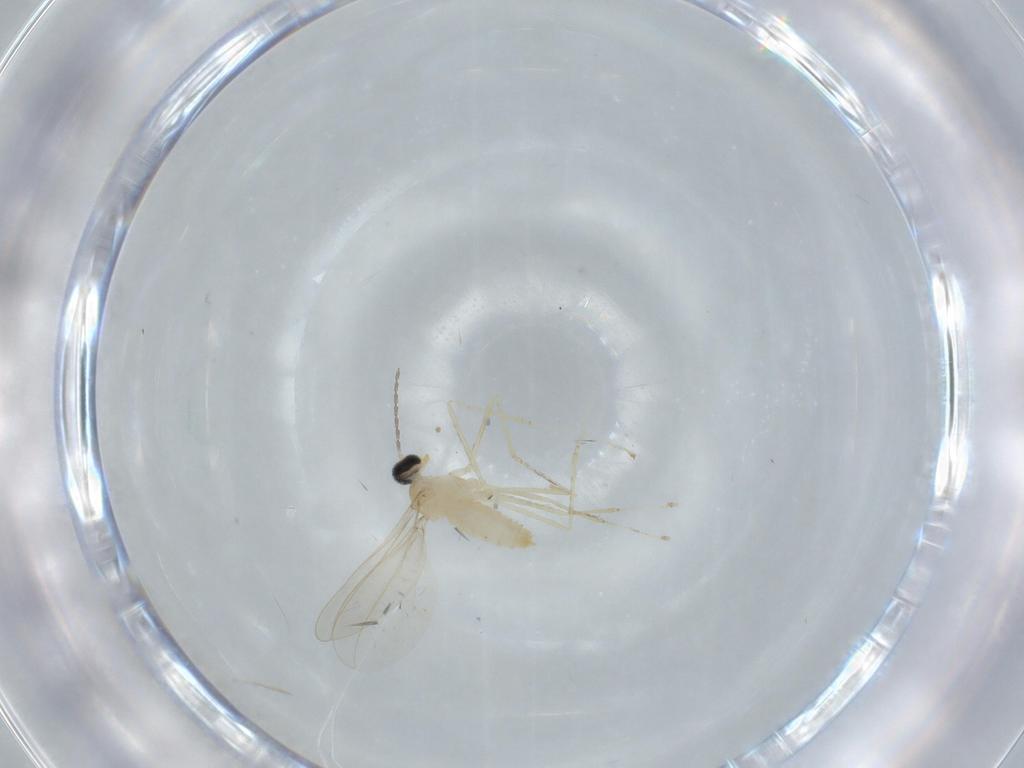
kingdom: Animalia
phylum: Arthropoda
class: Insecta
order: Diptera
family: Cecidomyiidae
